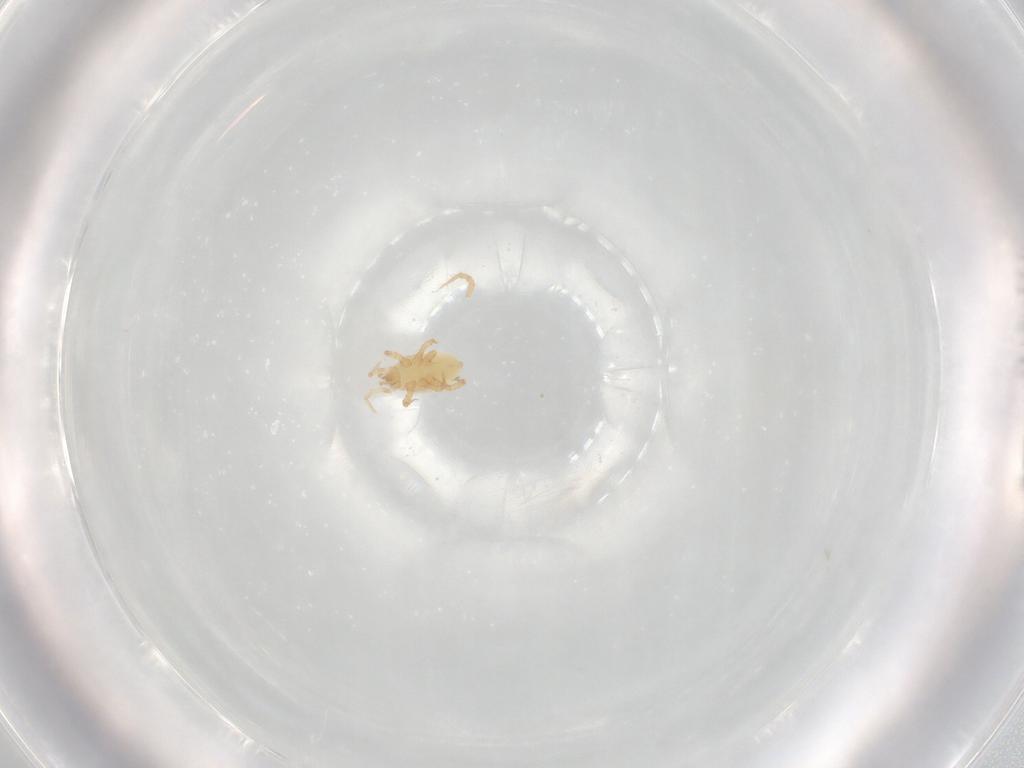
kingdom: Animalia
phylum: Arthropoda
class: Arachnida
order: Mesostigmata
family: Parasitidae
